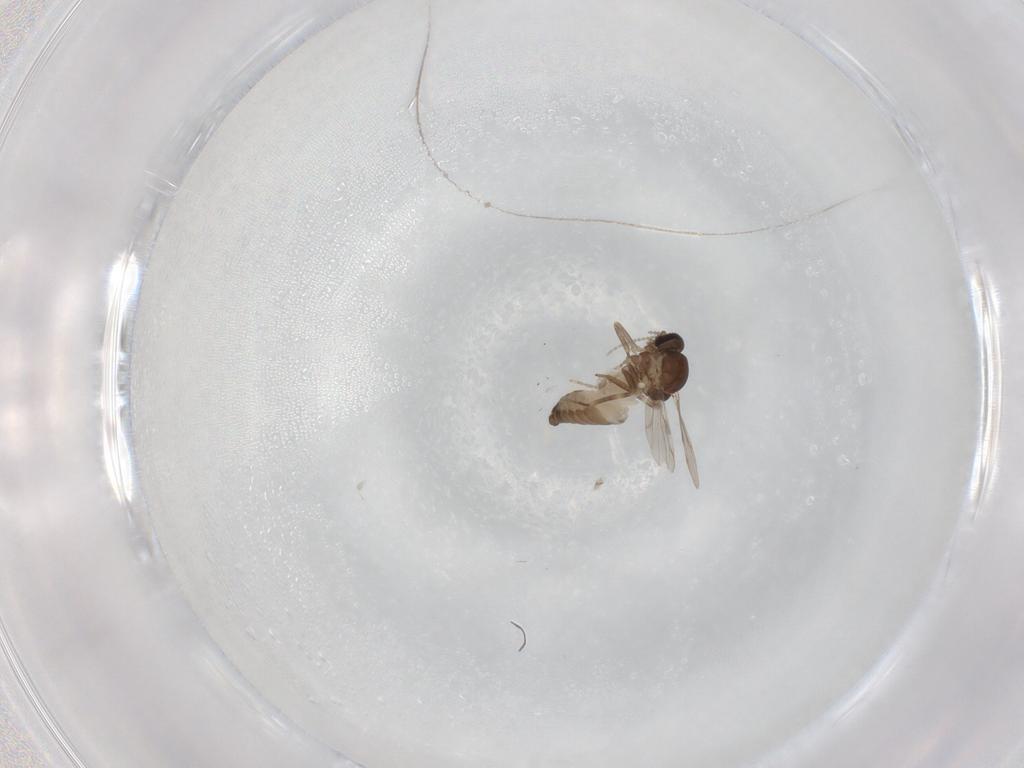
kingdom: Animalia
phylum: Arthropoda
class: Insecta
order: Diptera
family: Ceratopogonidae
